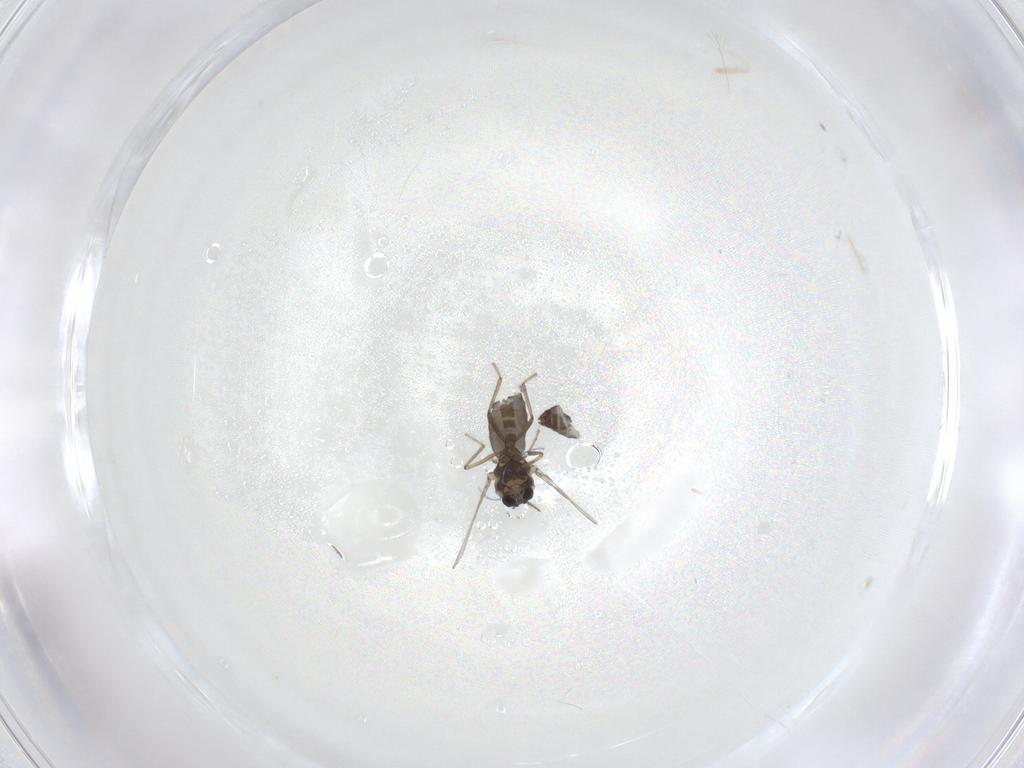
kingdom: Animalia
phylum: Arthropoda
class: Insecta
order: Diptera
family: Ceratopogonidae
